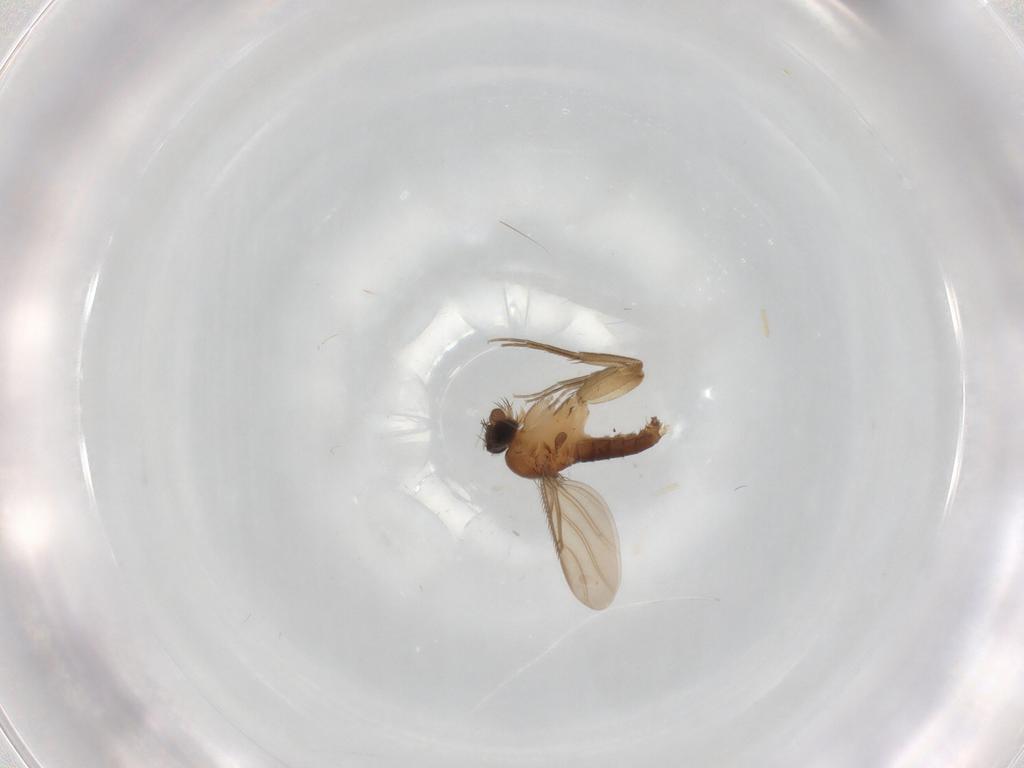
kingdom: Animalia
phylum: Arthropoda
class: Insecta
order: Diptera
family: Phoridae
